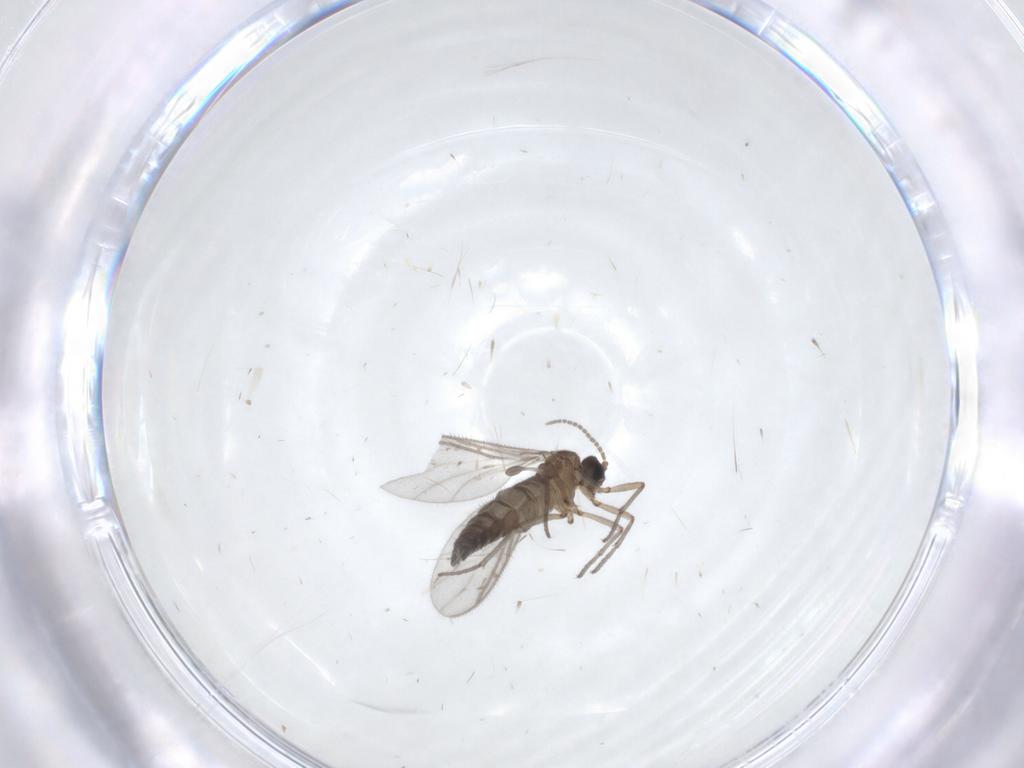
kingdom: Animalia
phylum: Arthropoda
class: Insecta
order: Diptera
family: Sciaridae
